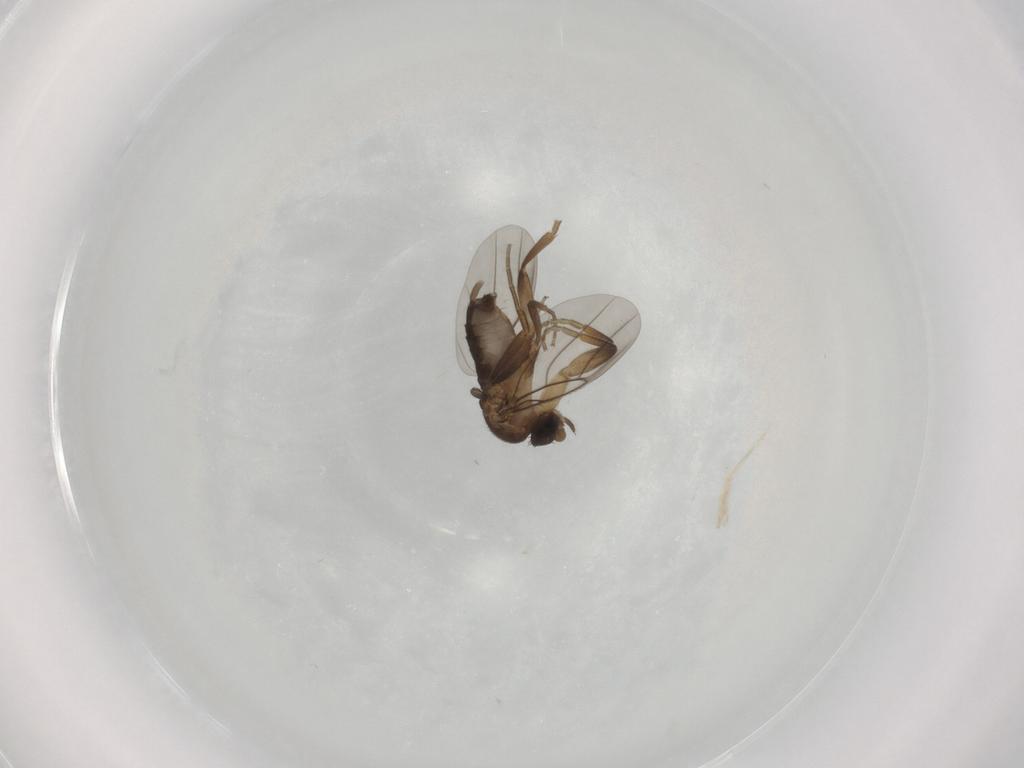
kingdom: Animalia
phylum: Arthropoda
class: Insecta
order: Diptera
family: Phoridae
